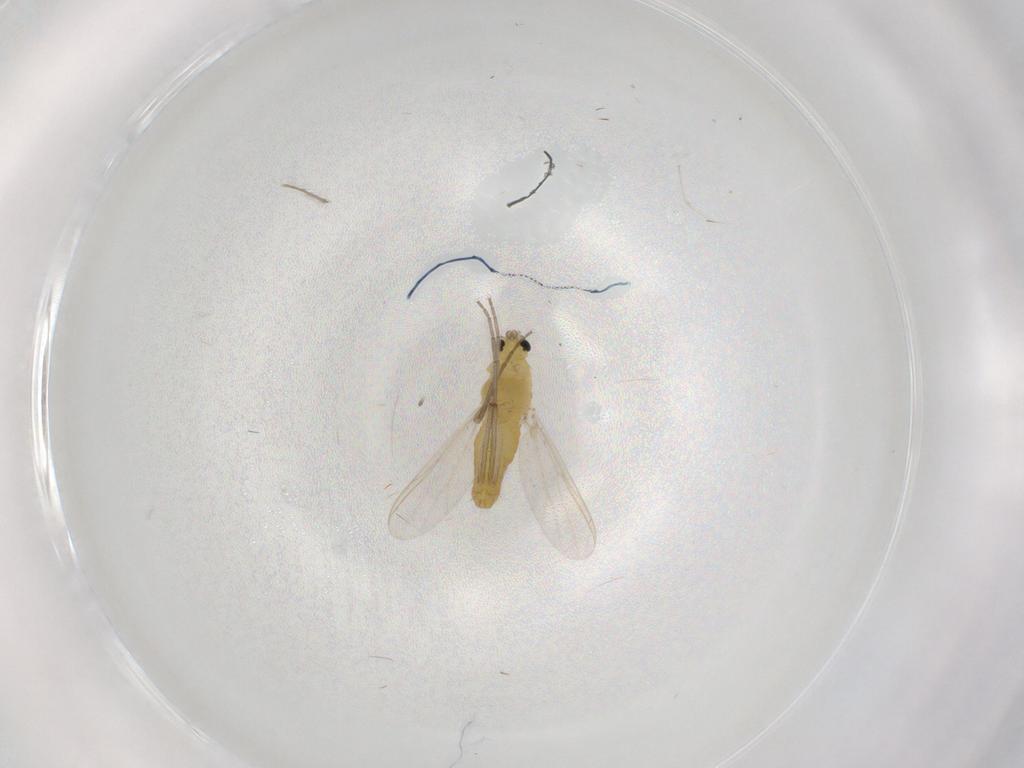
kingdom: Animalia
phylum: Arthropoda
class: Insecta
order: Diptera
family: Cecidomyiidae
